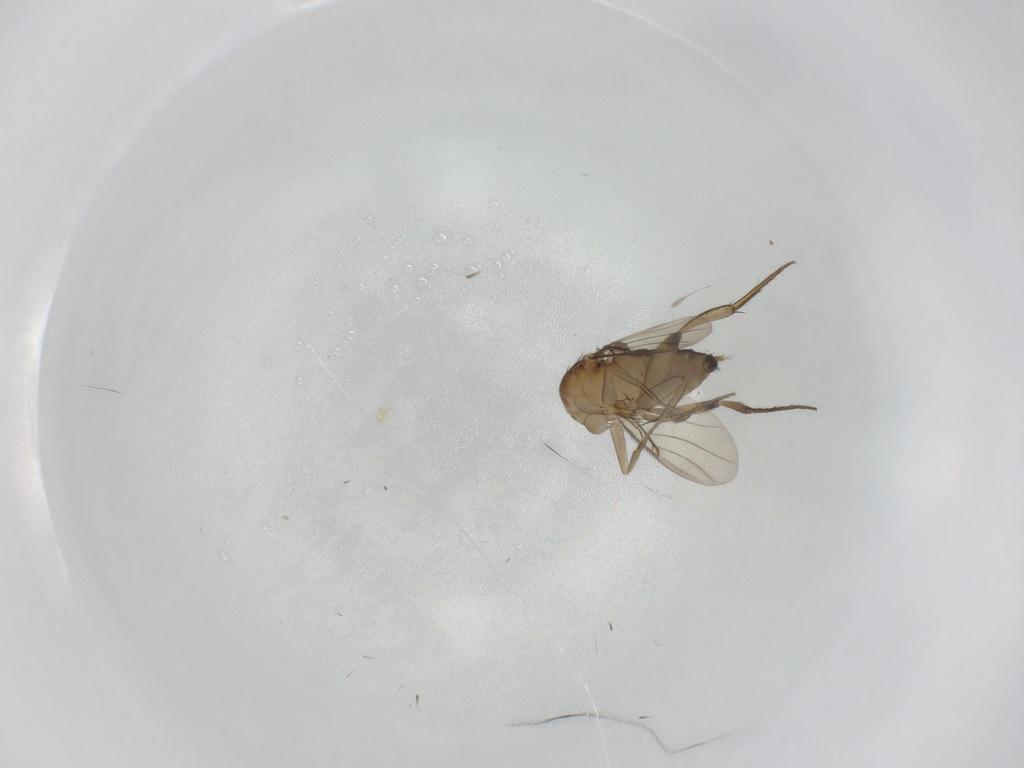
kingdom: Animalia
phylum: Arthropoda
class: Insecta
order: Diptera
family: Phoridae
